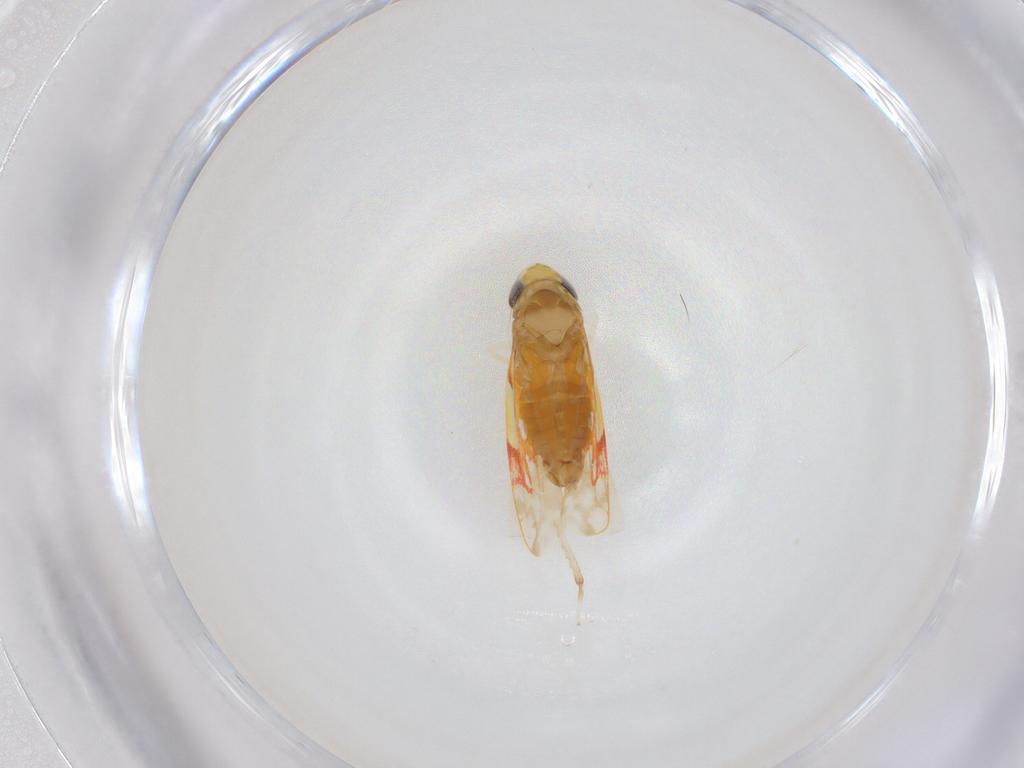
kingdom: Animalia
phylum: Arthropoda
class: Insecta
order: Hemiptera
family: Cicadellidae
